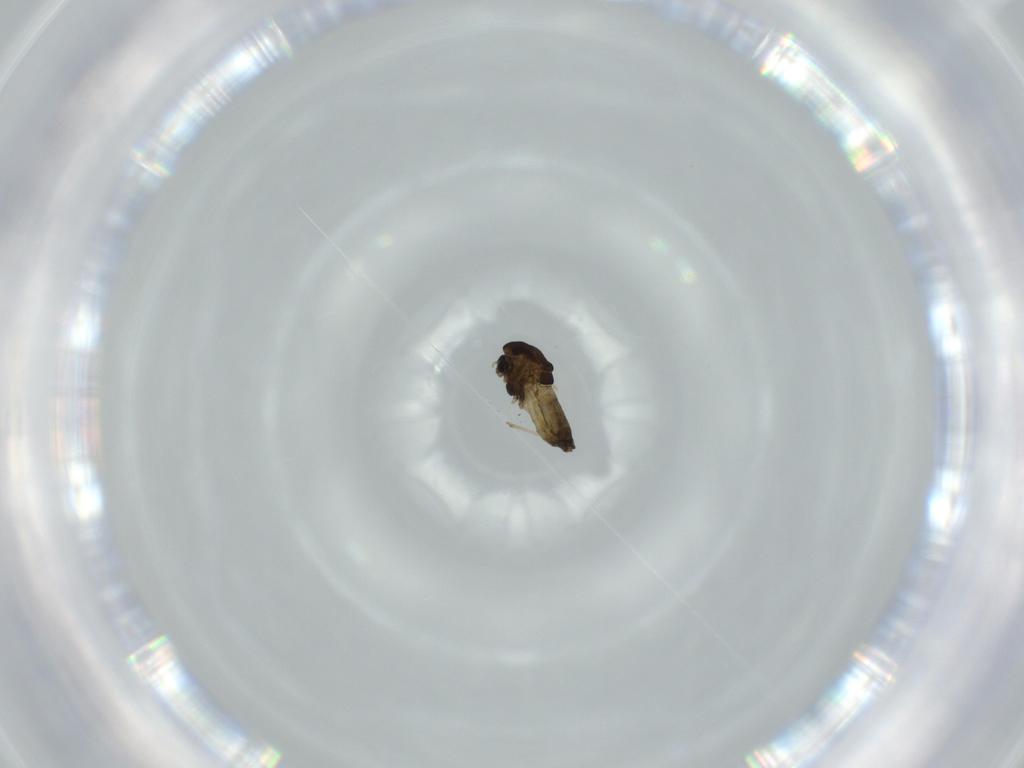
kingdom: Animalia
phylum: Arthropoda
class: Insecta
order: Diptera
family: Chironomidae
